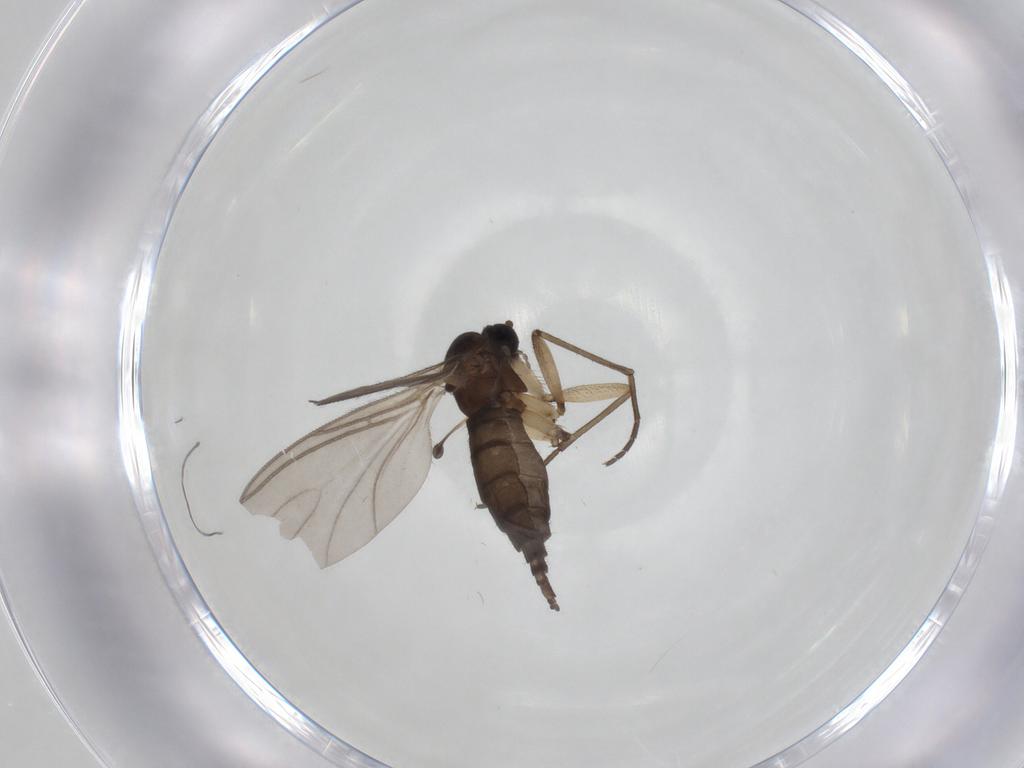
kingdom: Animalia
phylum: Arthropoda
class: Insecta
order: Diptera
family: Sciaridae
